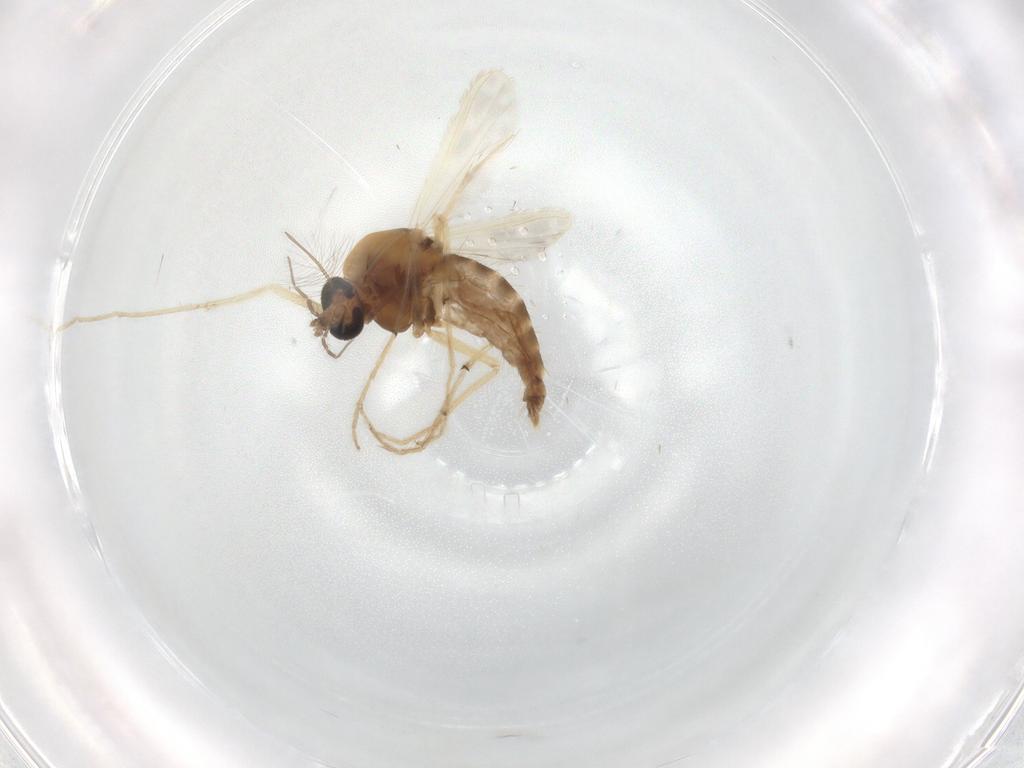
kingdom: Animalia
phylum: Arthropoda
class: Insecta
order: Diptera
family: Chironomidae
